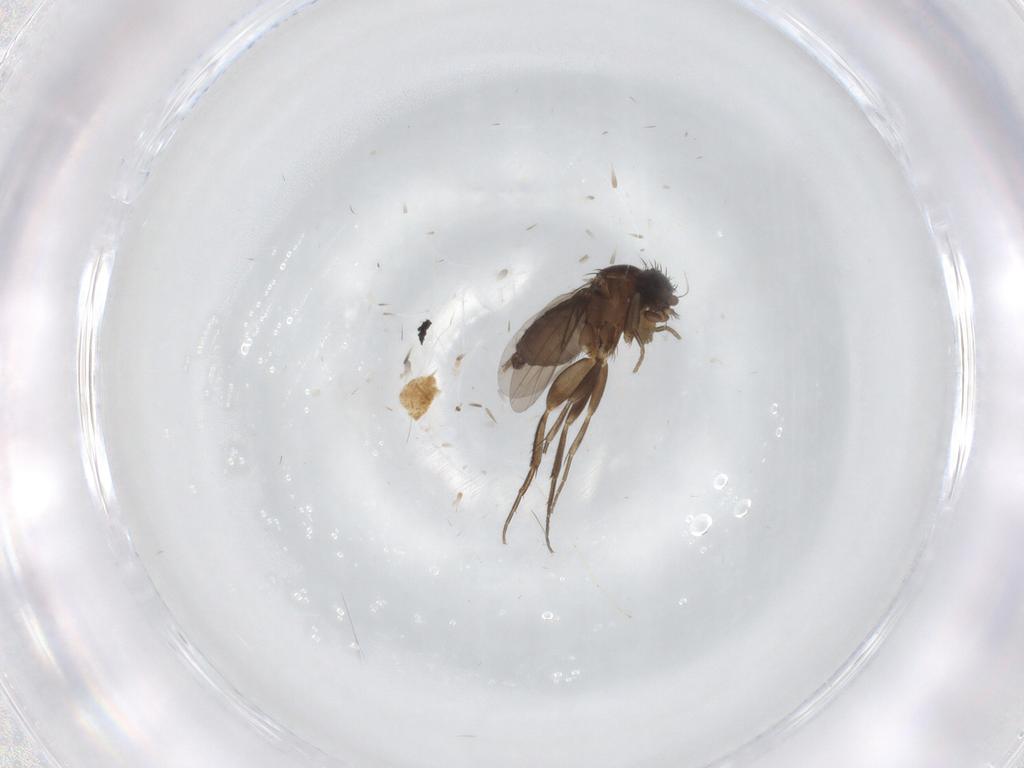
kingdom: Animalia
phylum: Arthropoda
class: Insecta
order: Diptera
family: Phoridae
